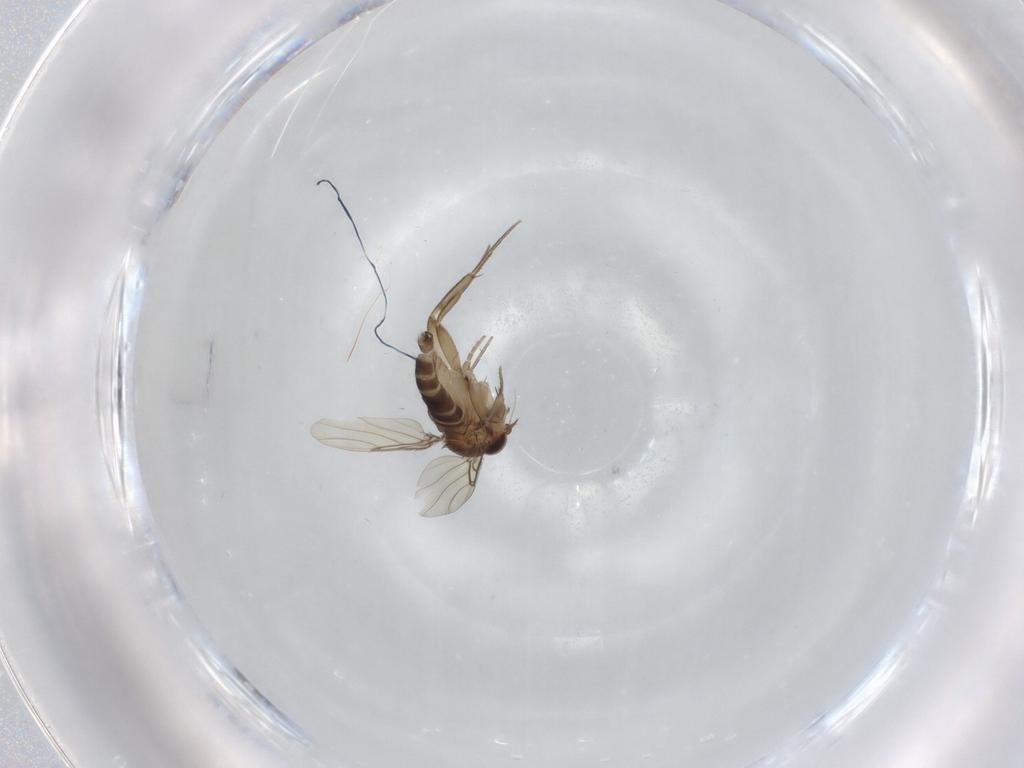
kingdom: Animalia
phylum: Arthropoda
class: Insecta
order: Diptera
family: Phoridae
